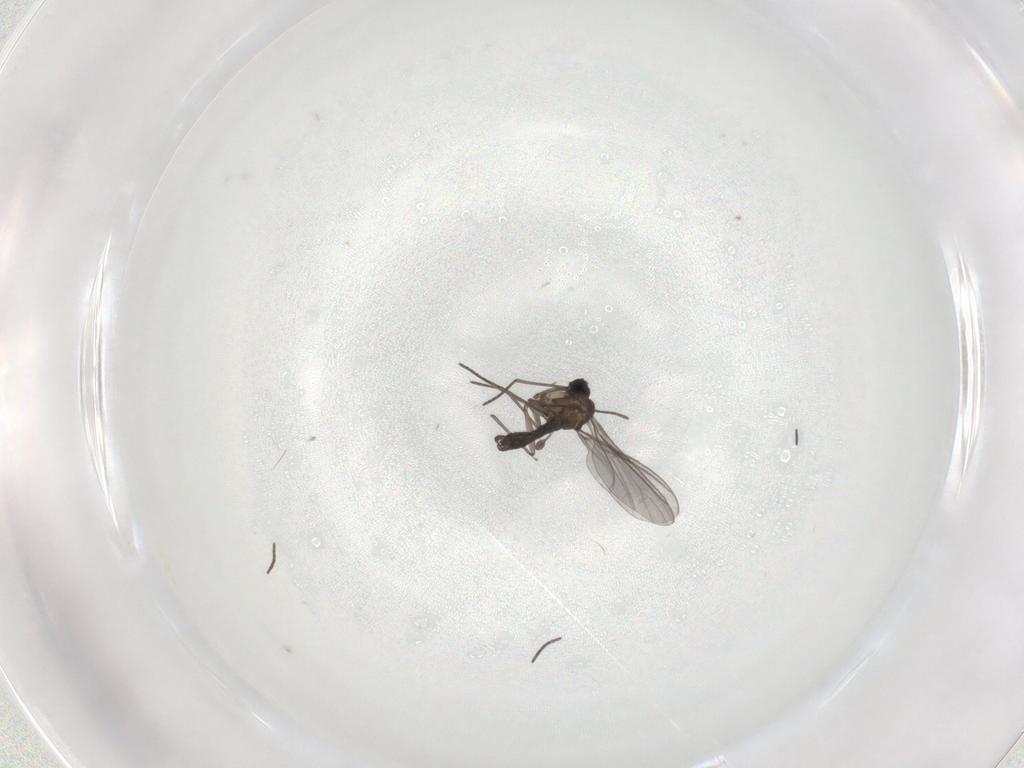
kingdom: Animalia
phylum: Arthropoda
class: Insecta
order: Diptera
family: Sciaridae
